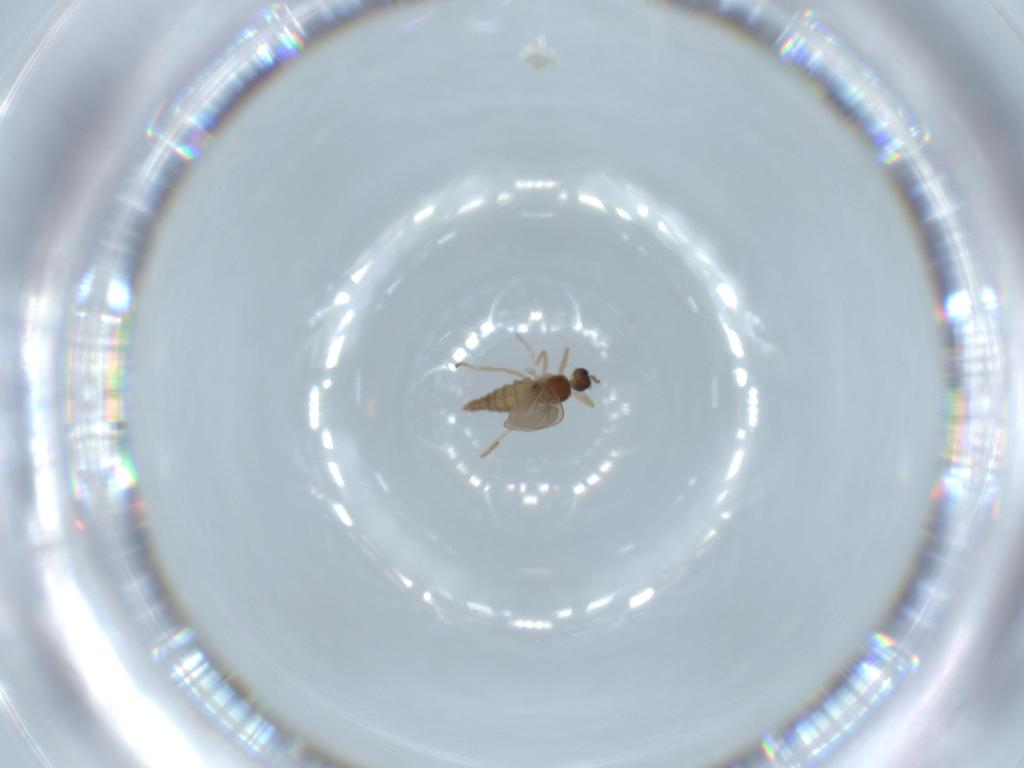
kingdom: Animalia
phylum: Arthropoda
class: Insecta
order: Diptera
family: Cecidomyiidae
